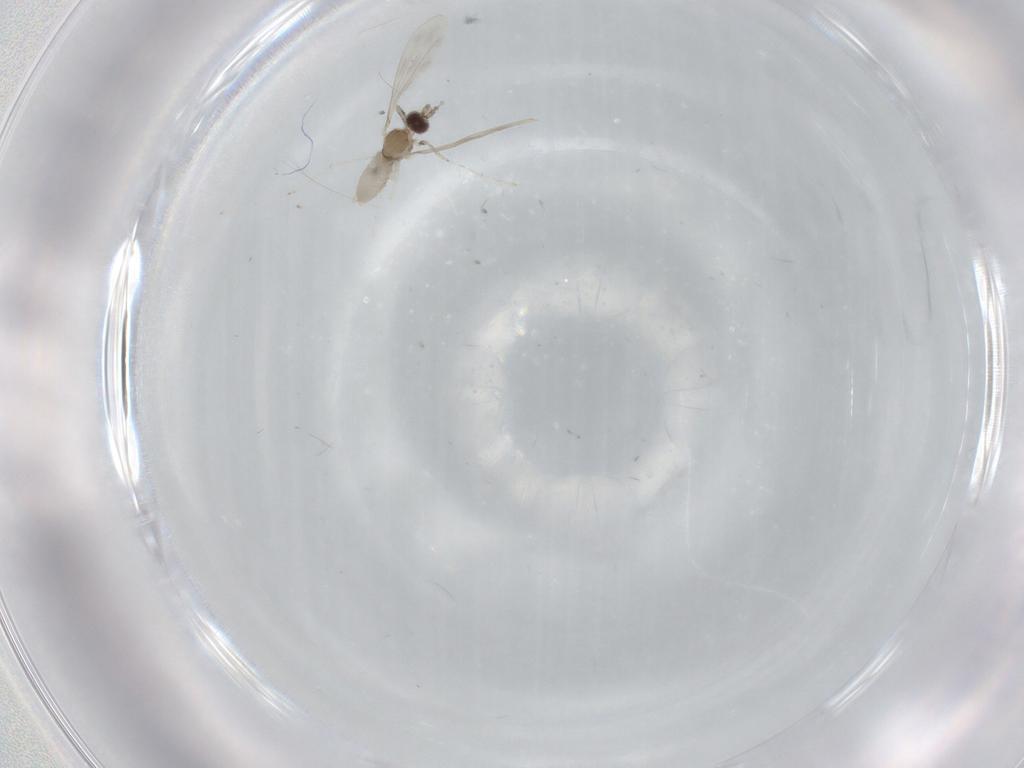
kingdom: Animalia
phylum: Arthropoda
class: Insecta
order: Diptera
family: Cecidomyiidae
